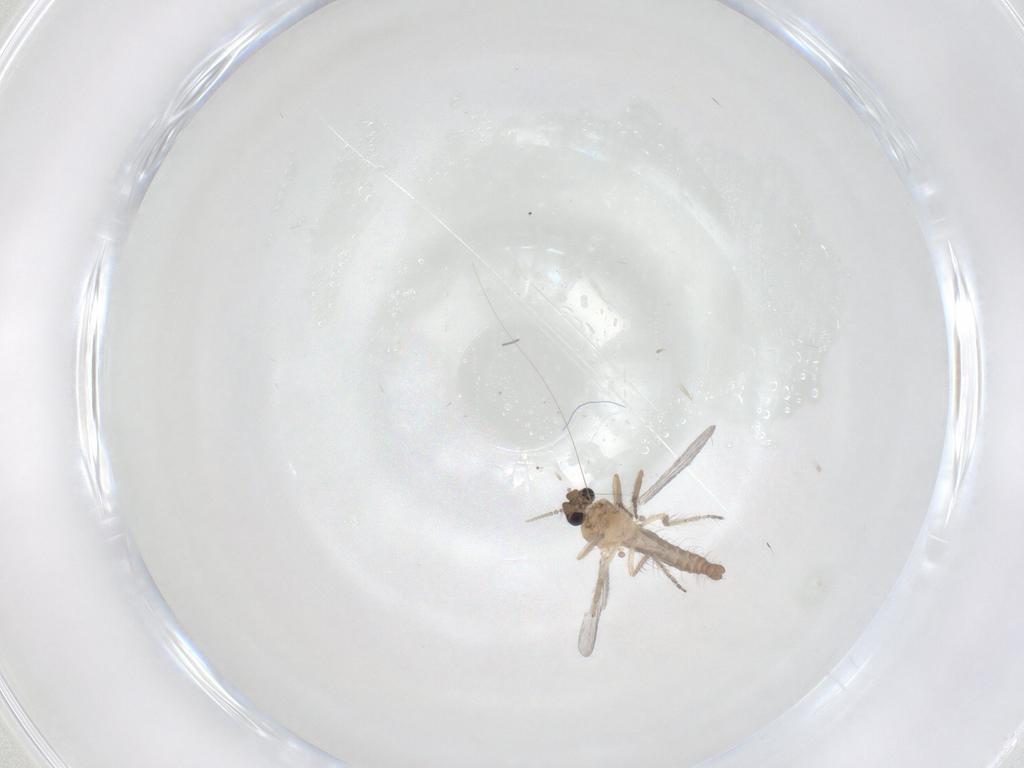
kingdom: Animalia
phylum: Arthropoda
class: Insecta
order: Diptera
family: Ceratopogonidae
